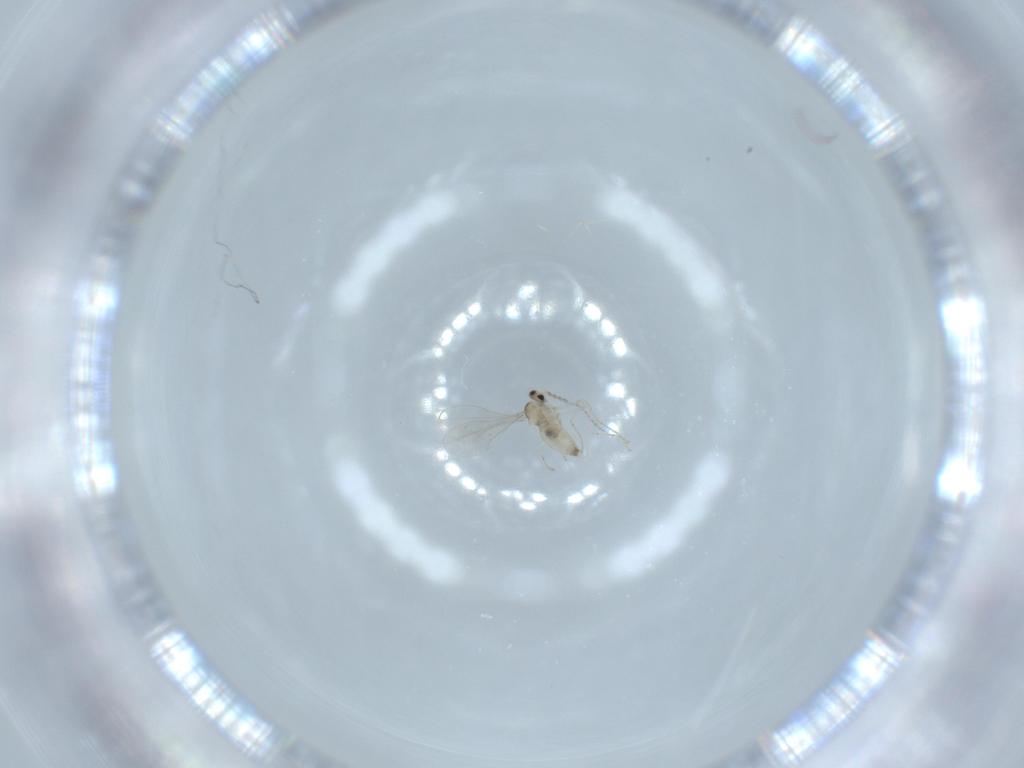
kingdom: Animalia
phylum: Arthropoda
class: Insecta
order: Diptera
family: Cecidomyiidae
